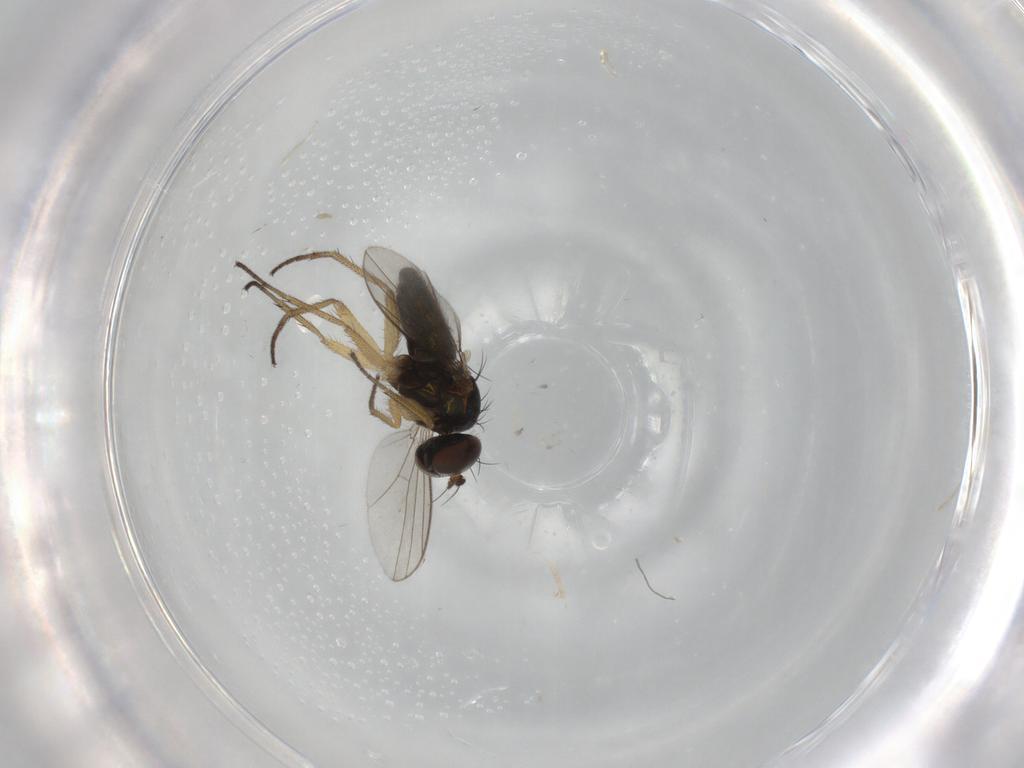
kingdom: Animalia
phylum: Arthropoda
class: Insecta
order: Diptera
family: Dolichopodidae
